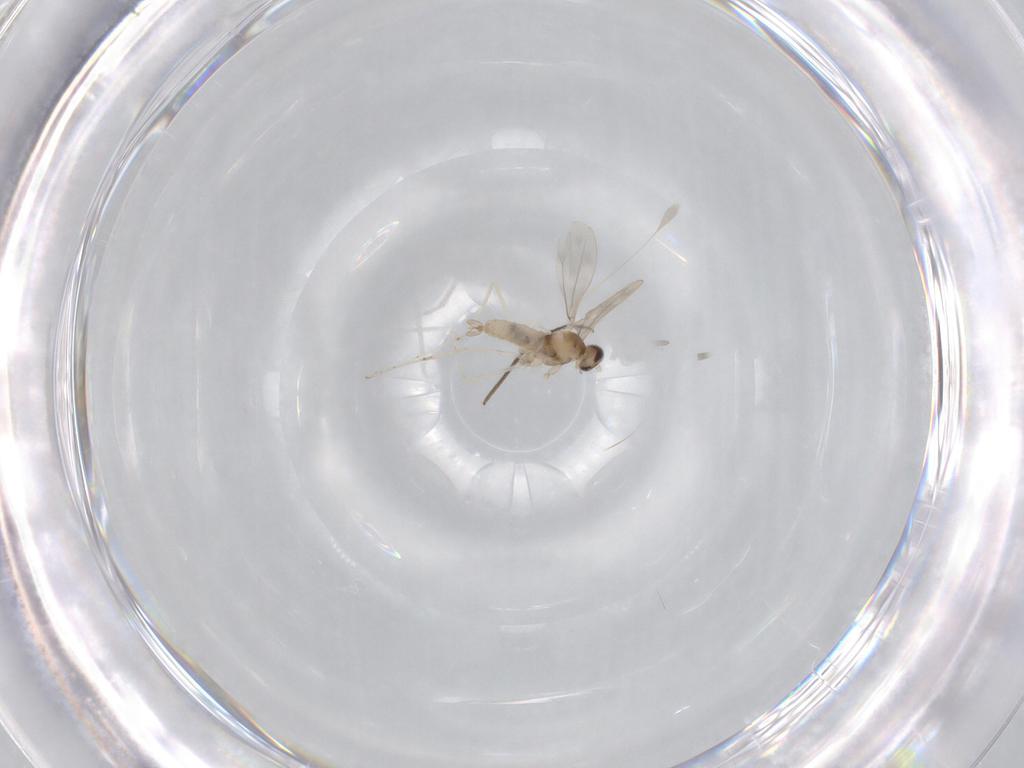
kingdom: Animalia
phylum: Arthropoda
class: Insecta
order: Diptera
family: Cecidomyiidae
